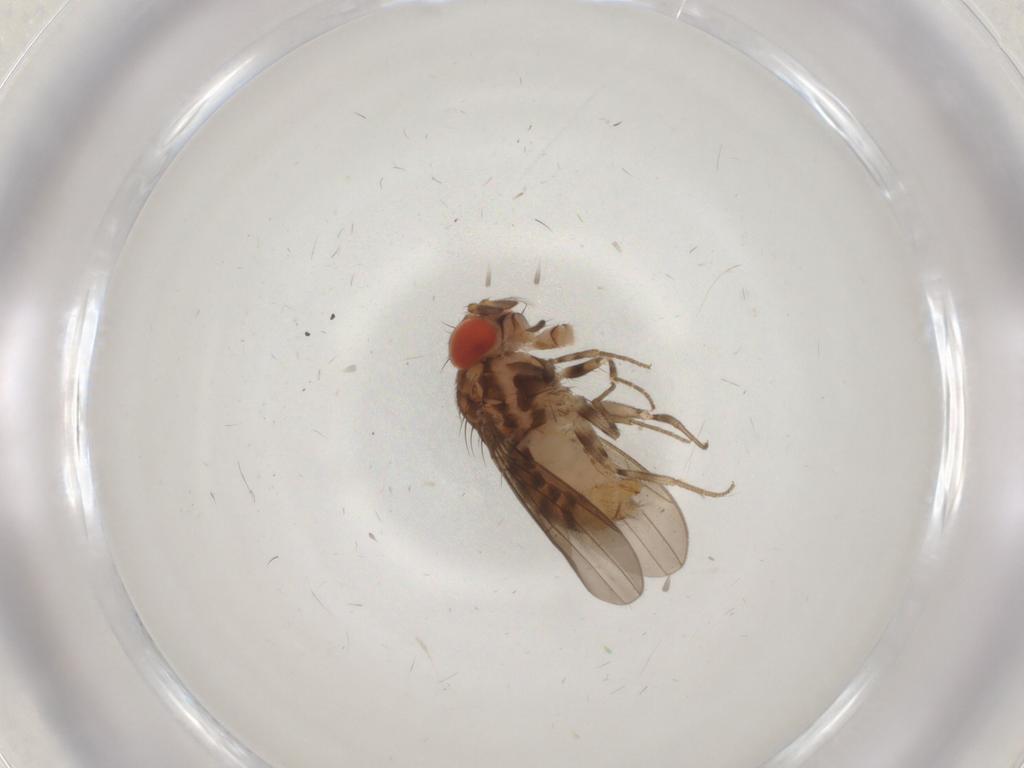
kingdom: Animalia
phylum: Arthropoda
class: Insecta
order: Diptera
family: Drosophilidae
